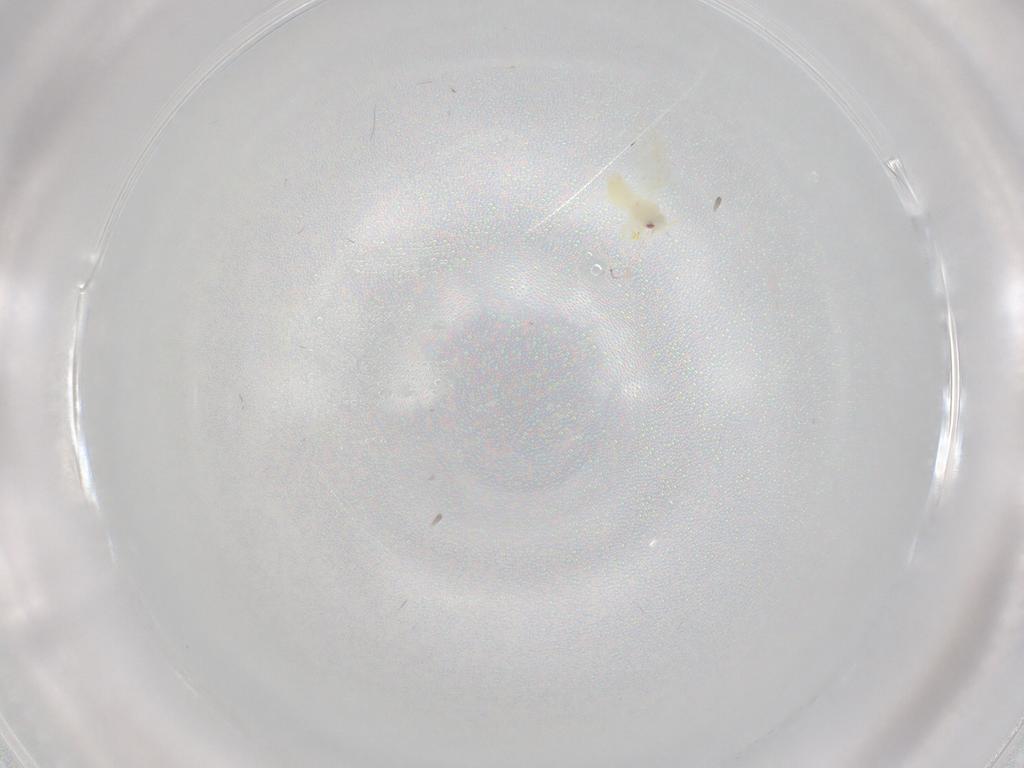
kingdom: Animalia
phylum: Arthropoda
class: Insecta
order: Hemiptera
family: Aleyrodidae
